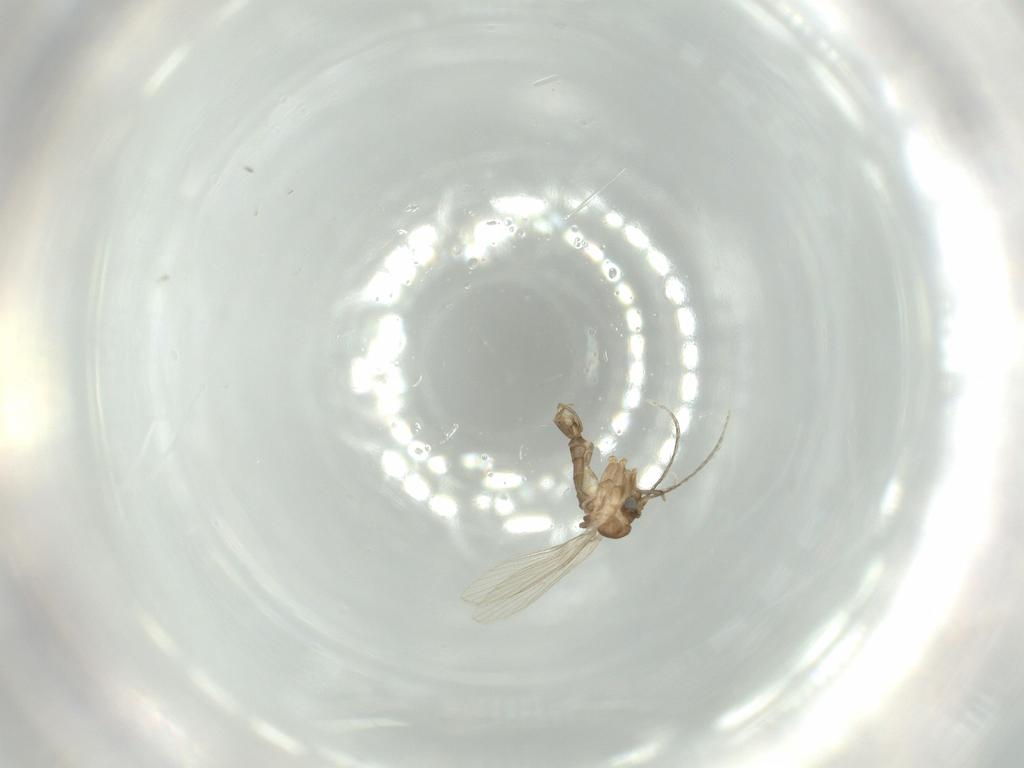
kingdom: Animalia
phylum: Arthropoda
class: Insecta
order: Diptera
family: Psychodidae
